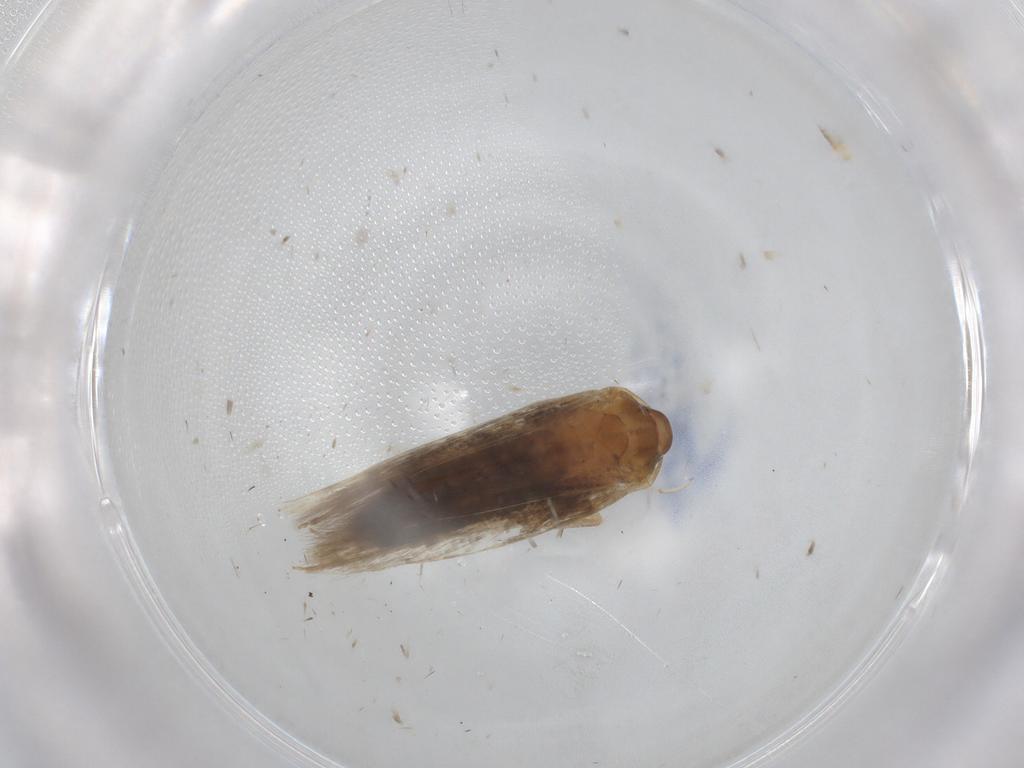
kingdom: Animalia
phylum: Arthropoda
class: Insecta
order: Lepidoptera
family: Cosmopterigidae
